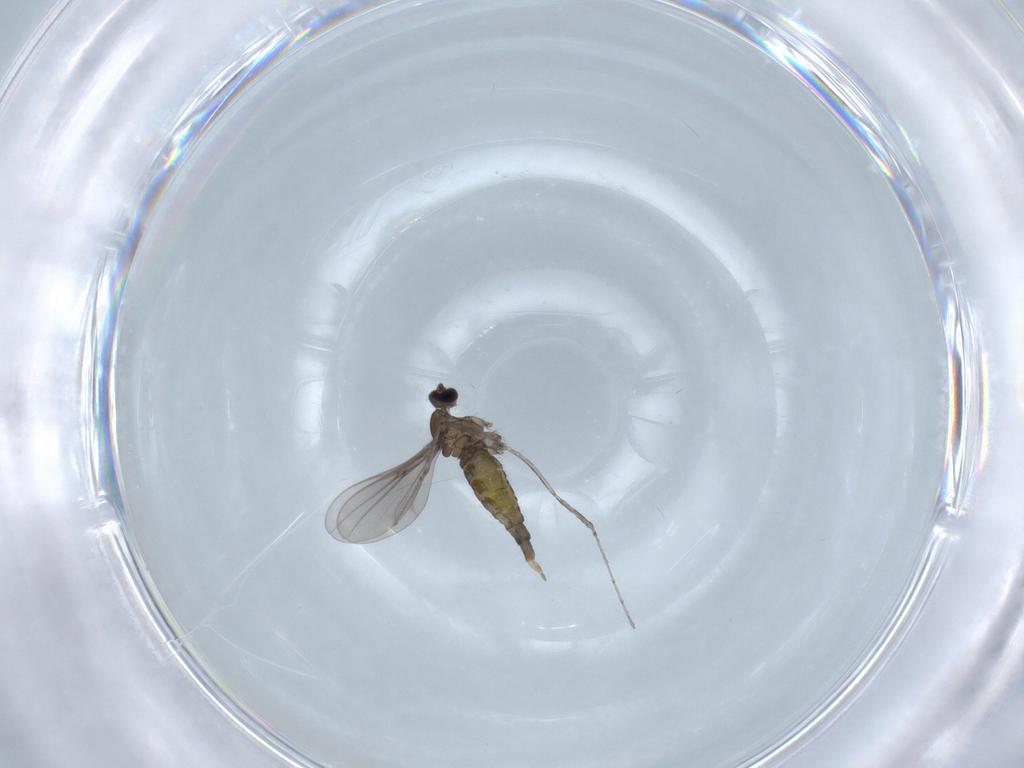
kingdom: Animalia
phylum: Arthropoda
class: Insecta
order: Diptera
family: Cecidomyiidae
